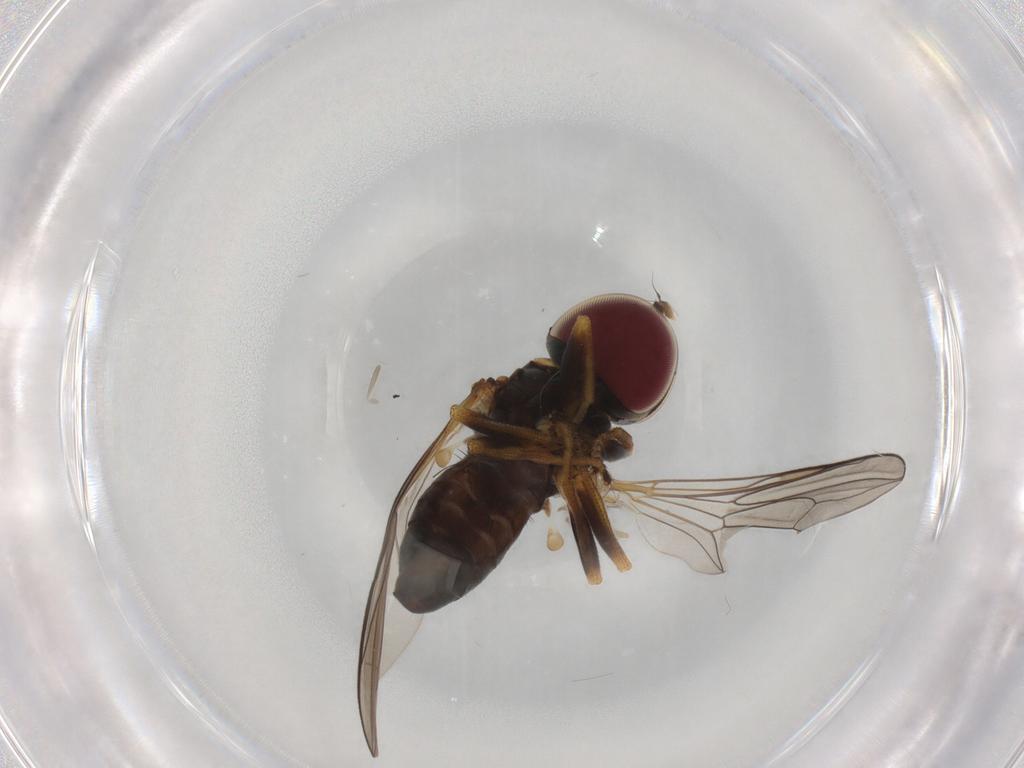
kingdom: Animalia
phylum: Arthropoda
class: Insecta
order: Diptera
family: Pipunculidae
